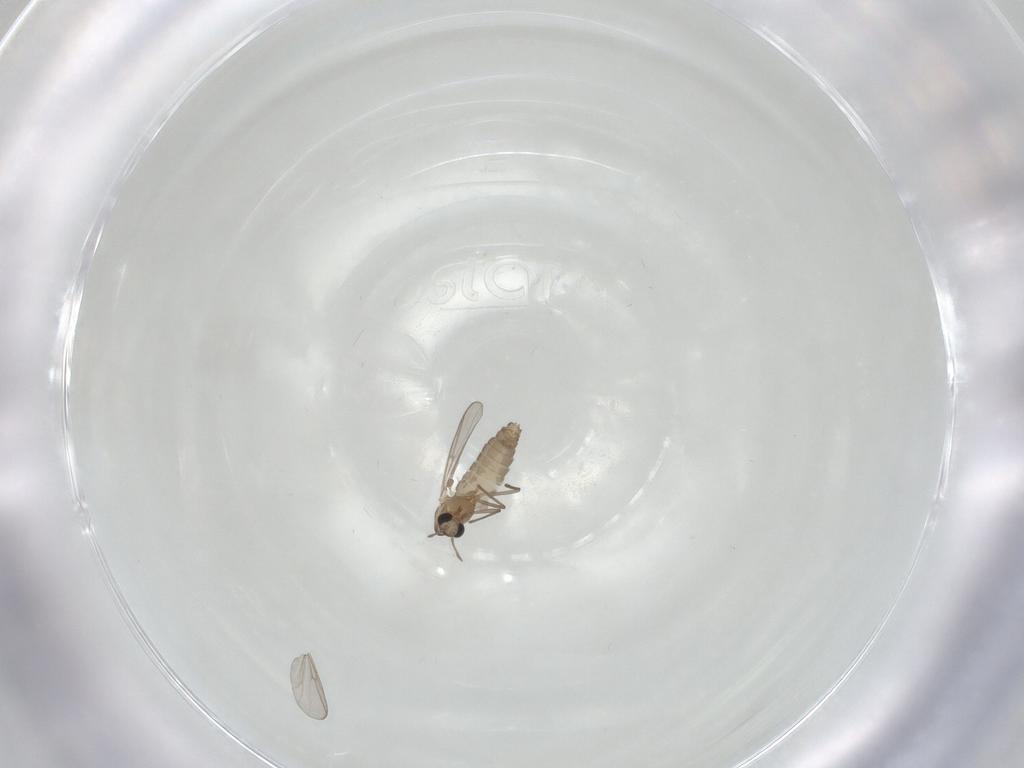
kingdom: Animalia
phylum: Arthropoda
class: Insecta
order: Diptera
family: Chironomidae
